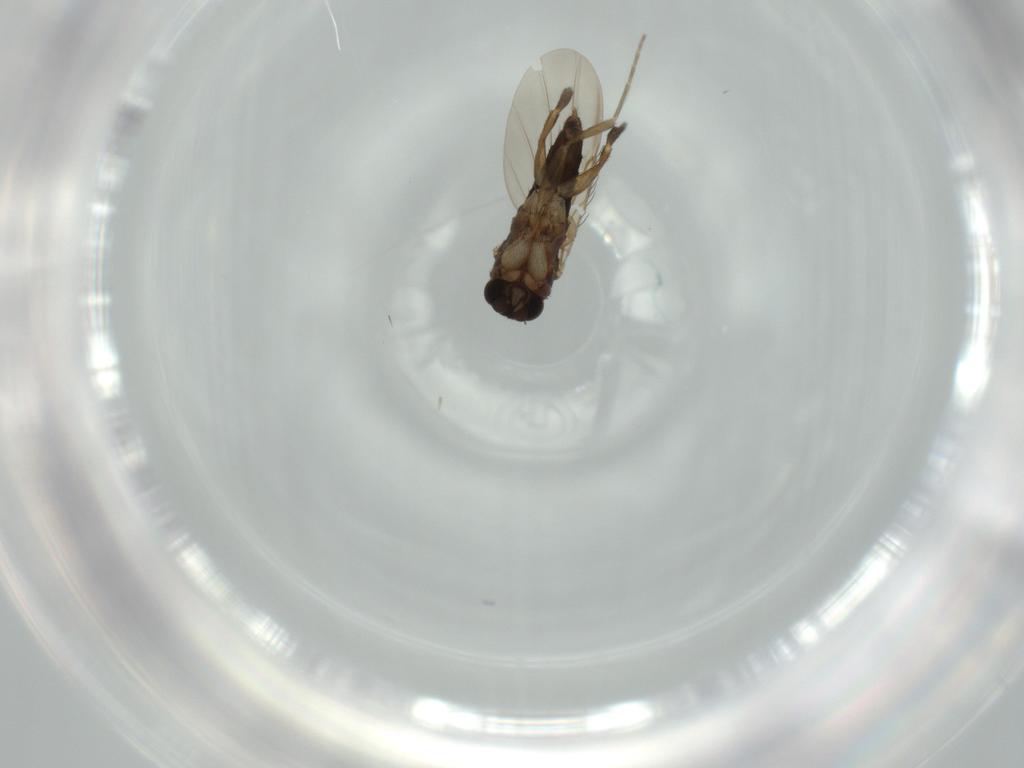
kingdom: Animalia
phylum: Arthropoda
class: Insecta
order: Diptera
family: Phoridae
